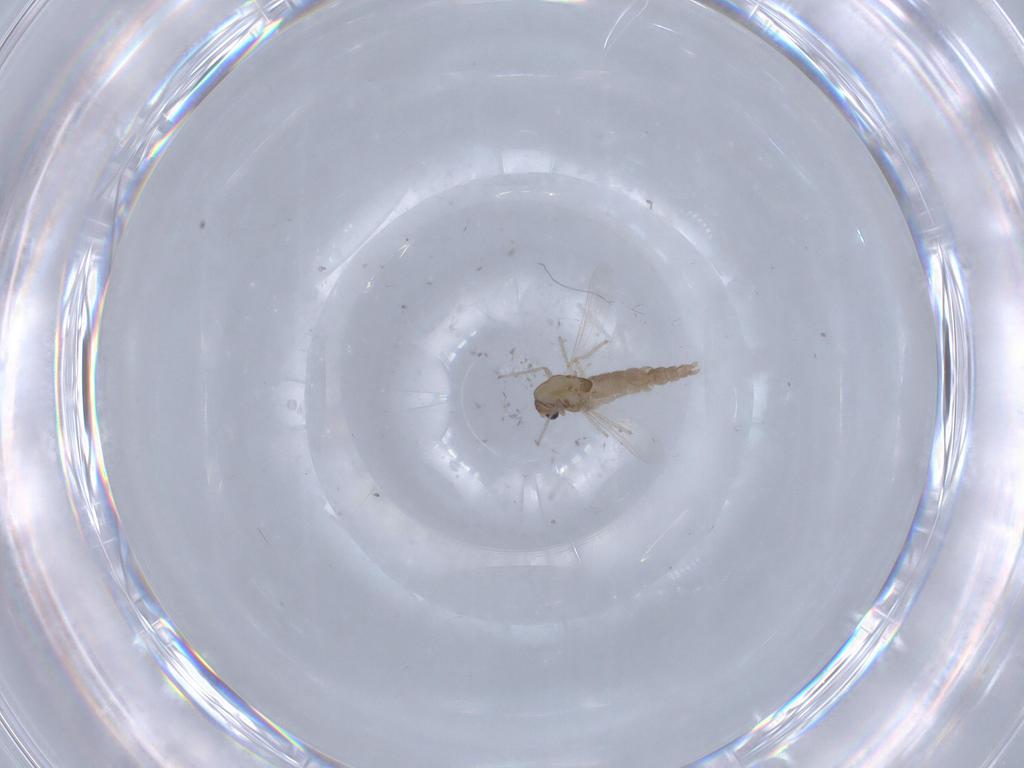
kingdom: Animalia
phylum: Arthropoda
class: Insecta
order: Diptera
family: Chironomidae
